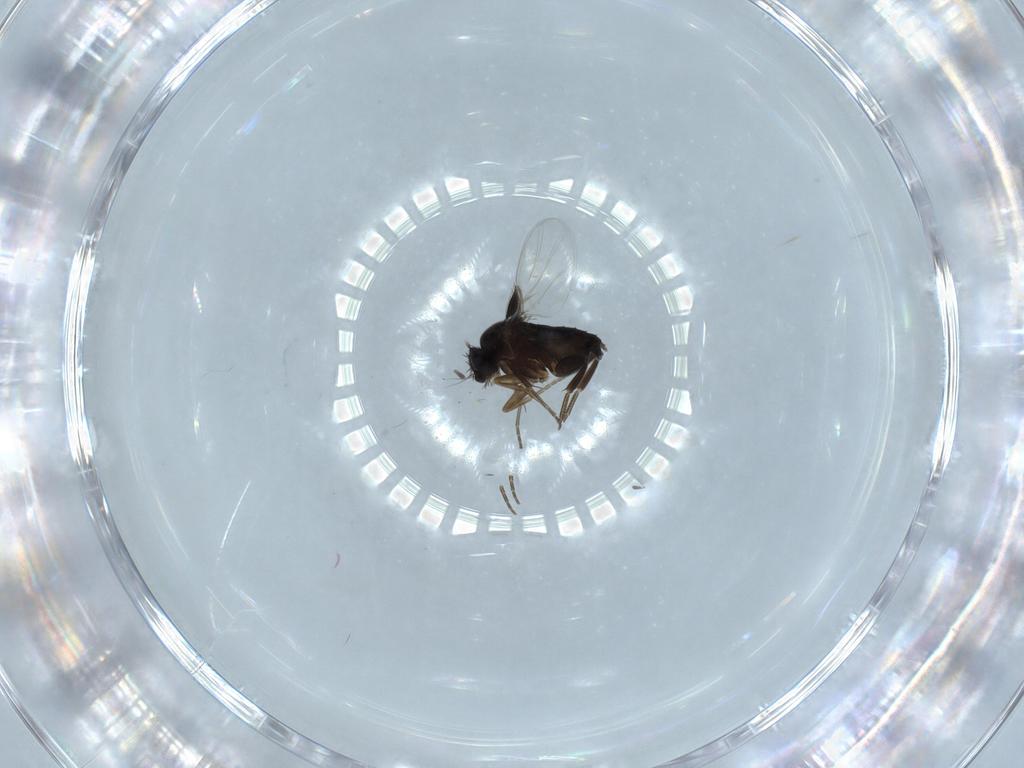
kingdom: Animalia
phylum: Arthropoda
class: Insecta
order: Diptera
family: Phoridae
